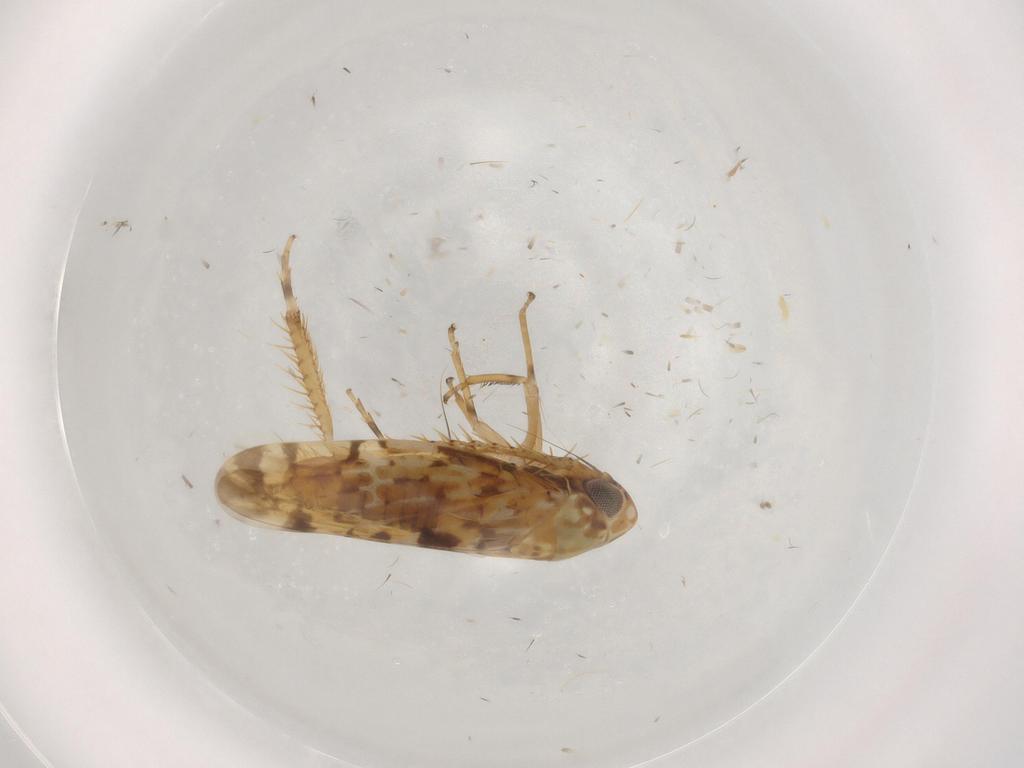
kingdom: Animalia
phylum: Arthropoda
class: Insecta
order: Hemiptera
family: Cicadellidae
